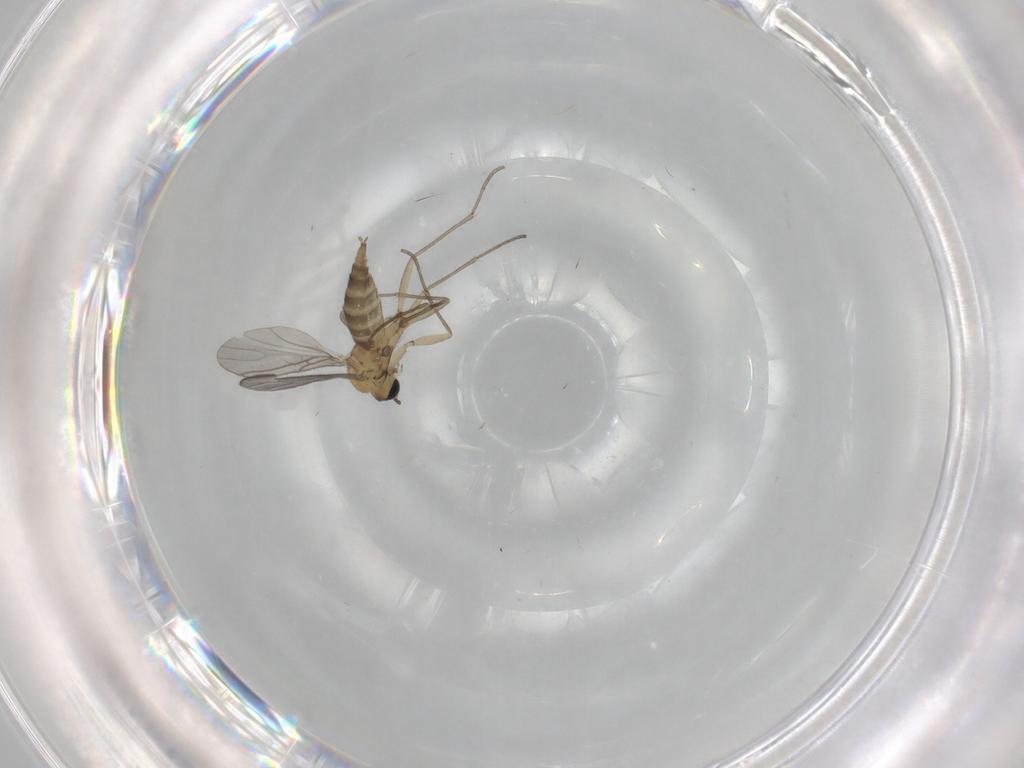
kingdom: Animalia
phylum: Arthropoda
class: Insecta
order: Diptera
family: Sciaridae
